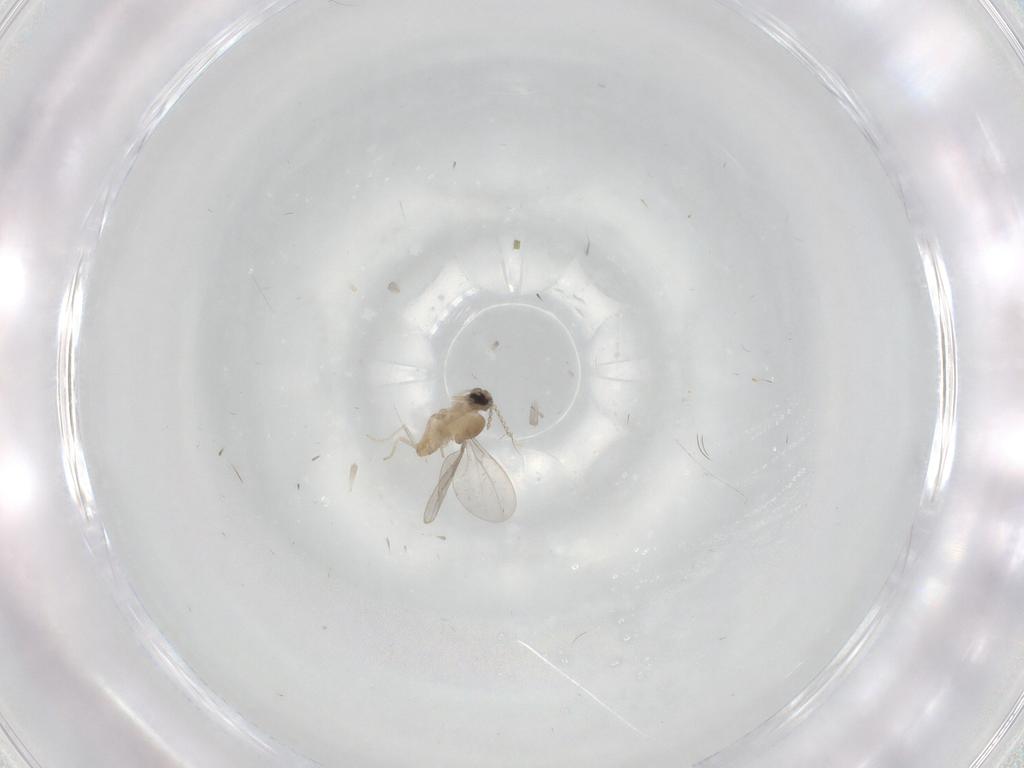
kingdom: Animalia
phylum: Arthropoda
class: Insecta
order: Diptera
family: Cecidomyiidae
